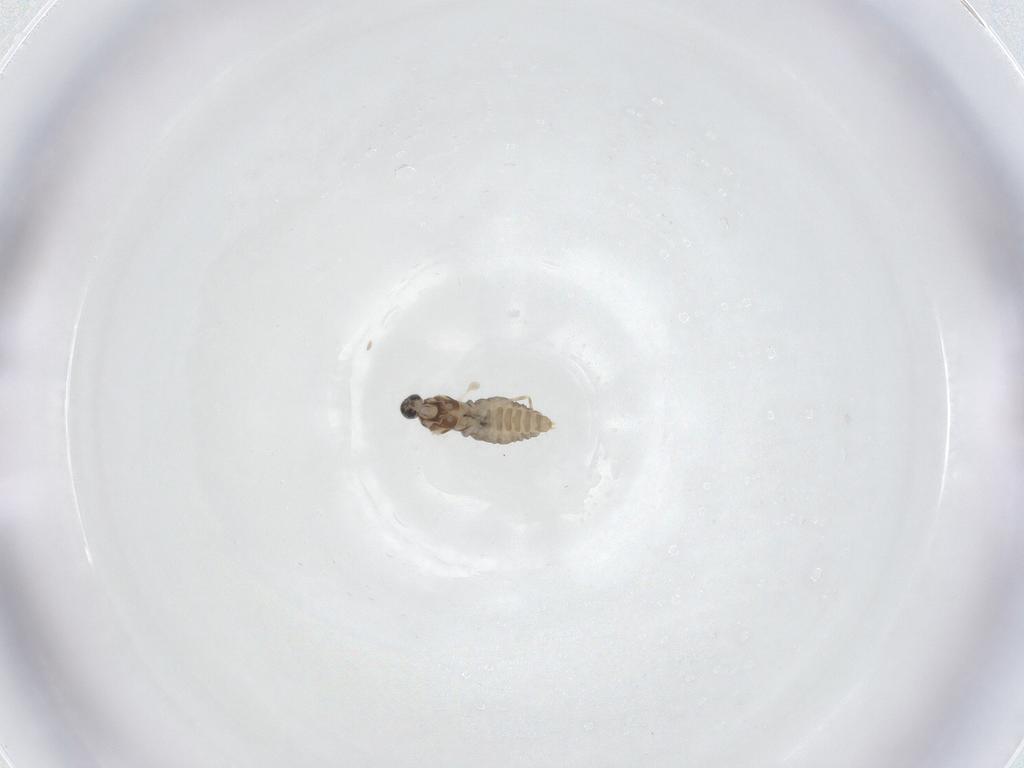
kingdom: Animalia
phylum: Arthropoda
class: Insecta
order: Diptera
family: Cecidomyiidae
